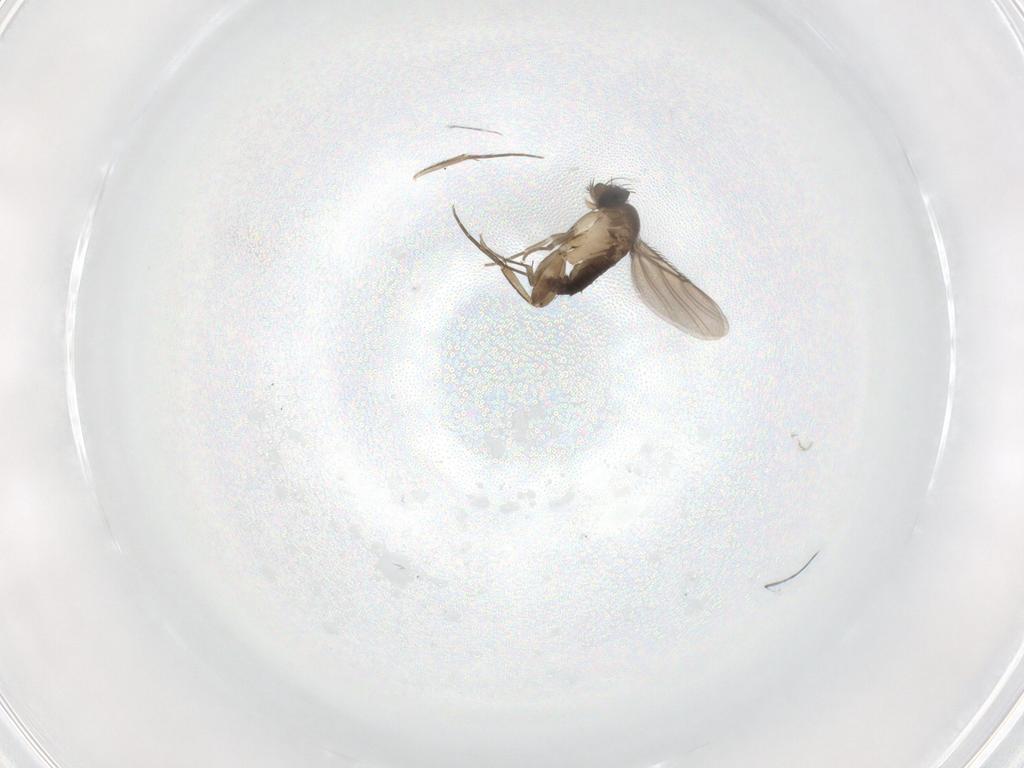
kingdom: Animalia
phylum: Arthropoda
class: Insecta
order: Diptera
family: Phoridae
